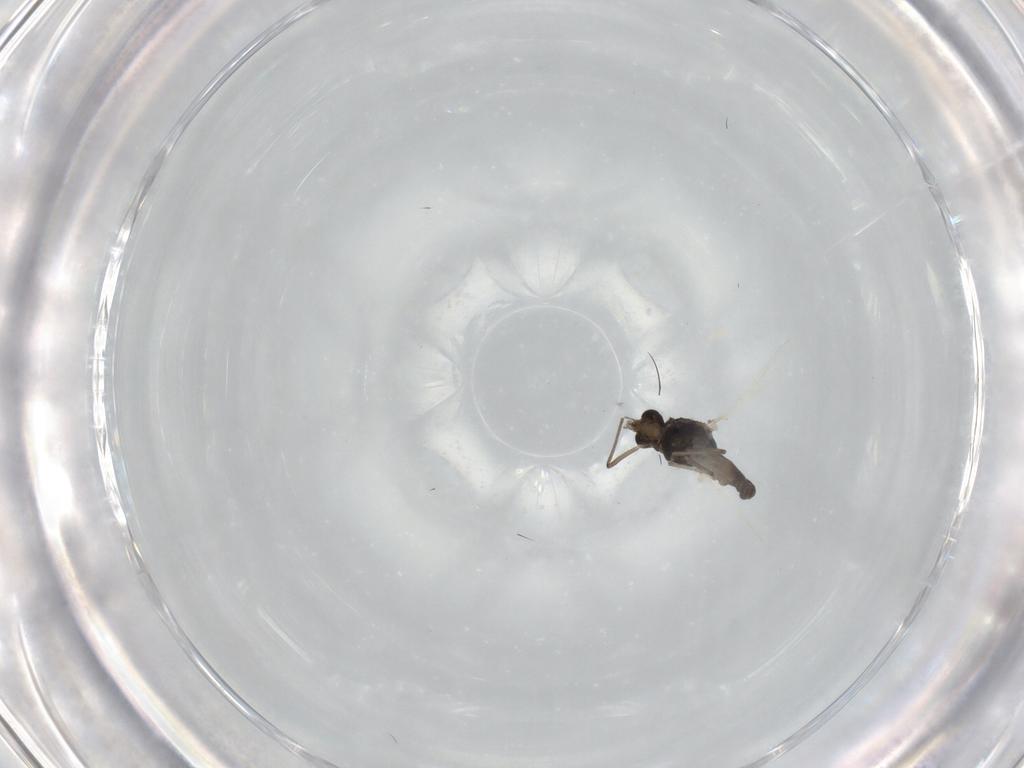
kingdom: Animalia
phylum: Arthropoda
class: Insecta
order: Diptera
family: Chironomidae
